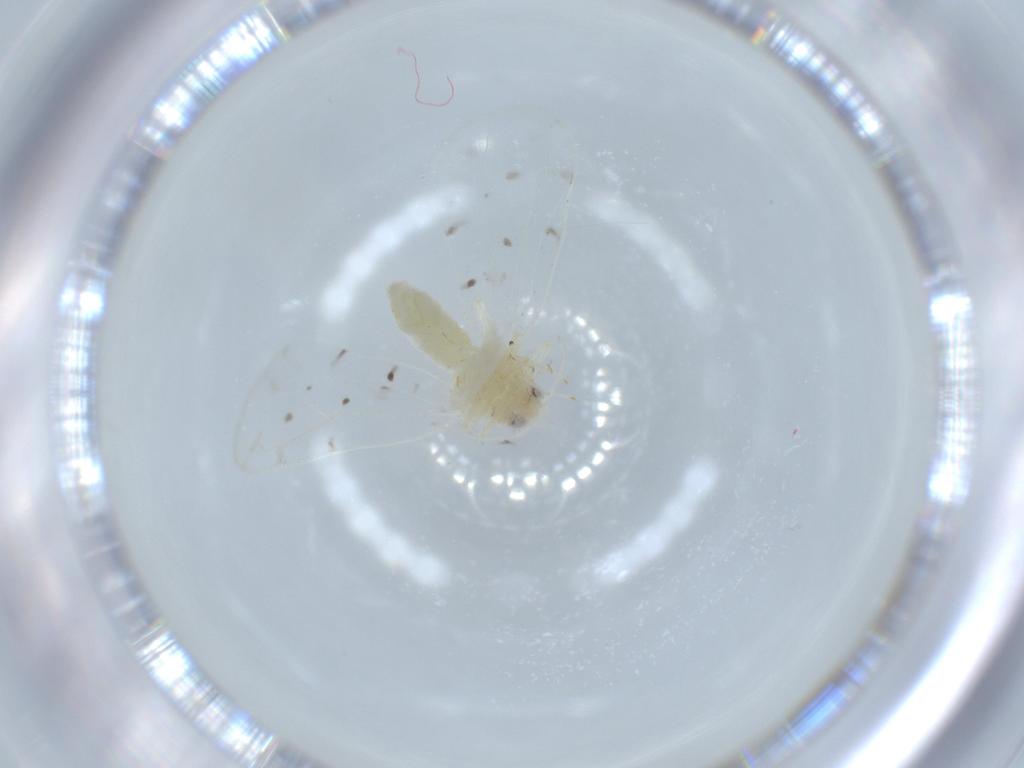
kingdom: Animalia
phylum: Arthropoda
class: Insecta
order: Hemiptera
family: Aleyrodidae
